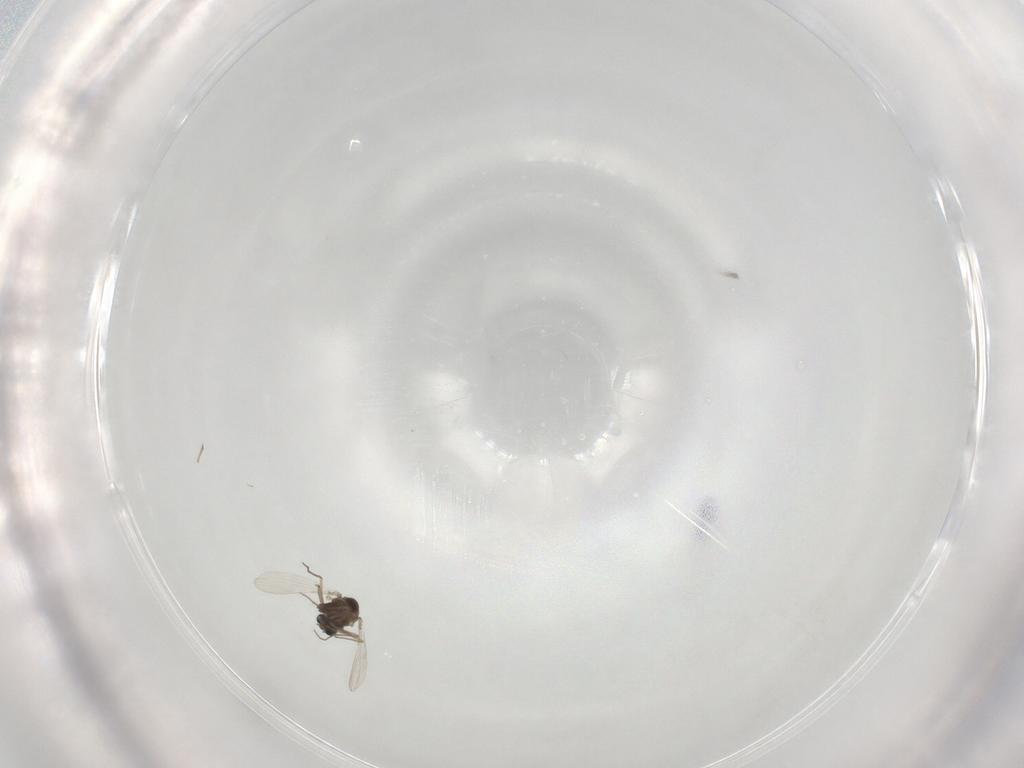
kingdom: Animalia
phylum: Arthropoda
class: Insecta
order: Diptera
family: Chironomidae
